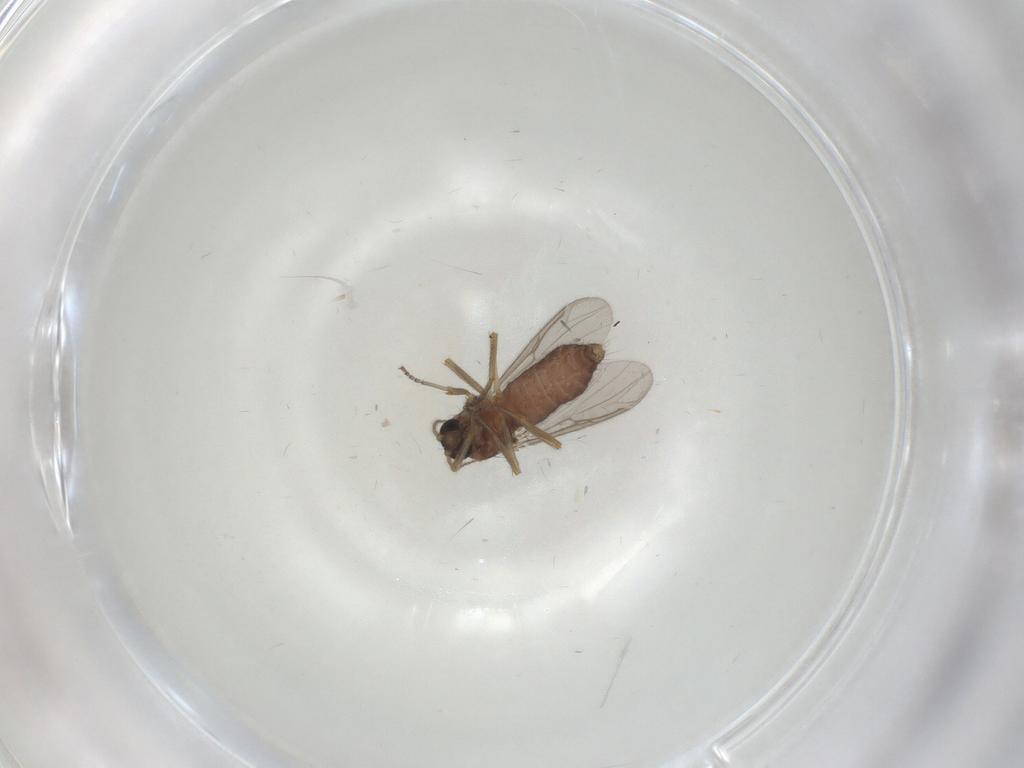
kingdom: Animalia
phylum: Arthropoda
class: Insecta
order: Diptera
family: Ceratopogonidae
